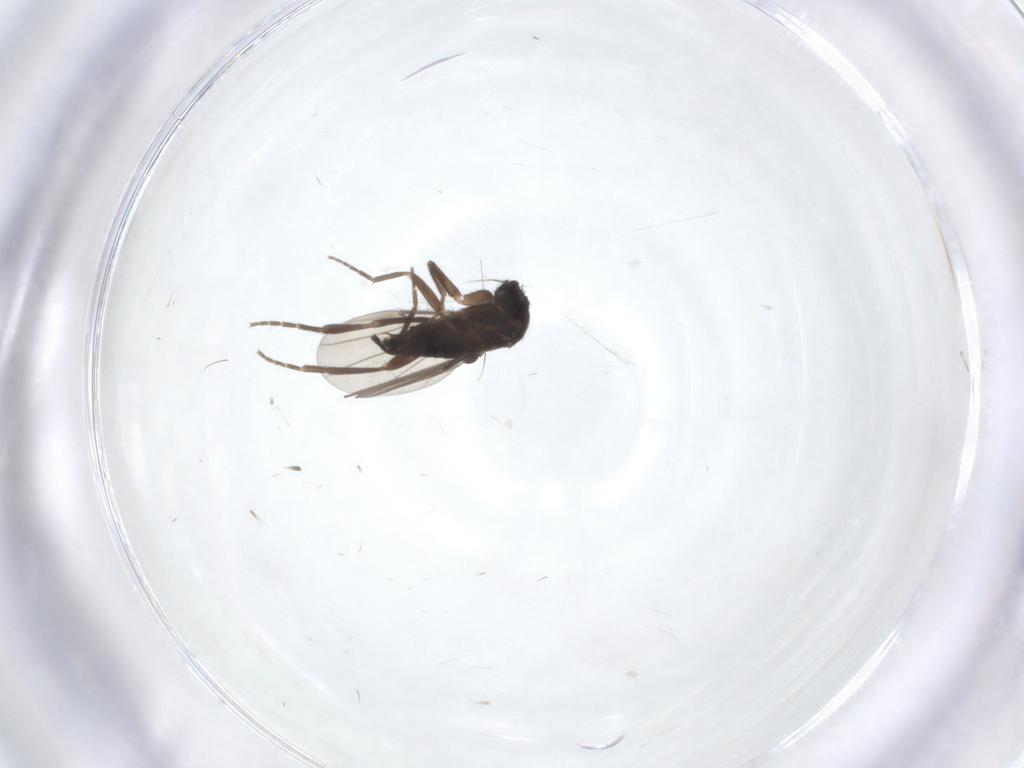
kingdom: Animalia
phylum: Arthropoda
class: Insecta
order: Diptera
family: Phoridae
